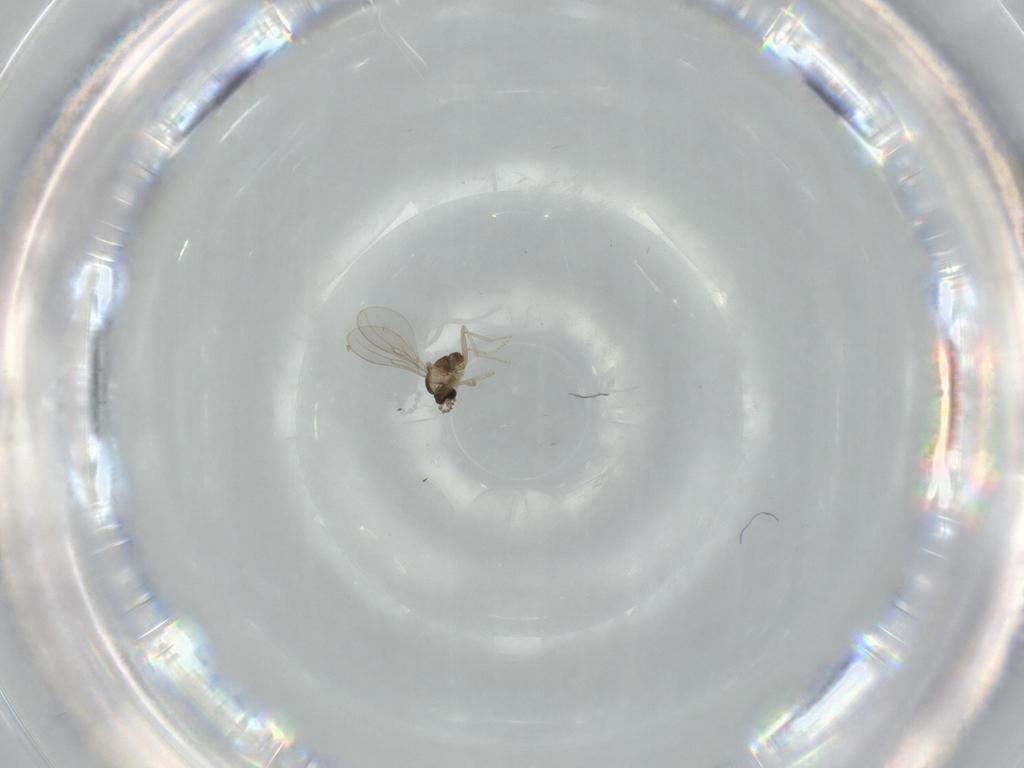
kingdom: Animalia
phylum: Arthropoda
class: Insecta
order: Diptera
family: Cecidomyiidae
